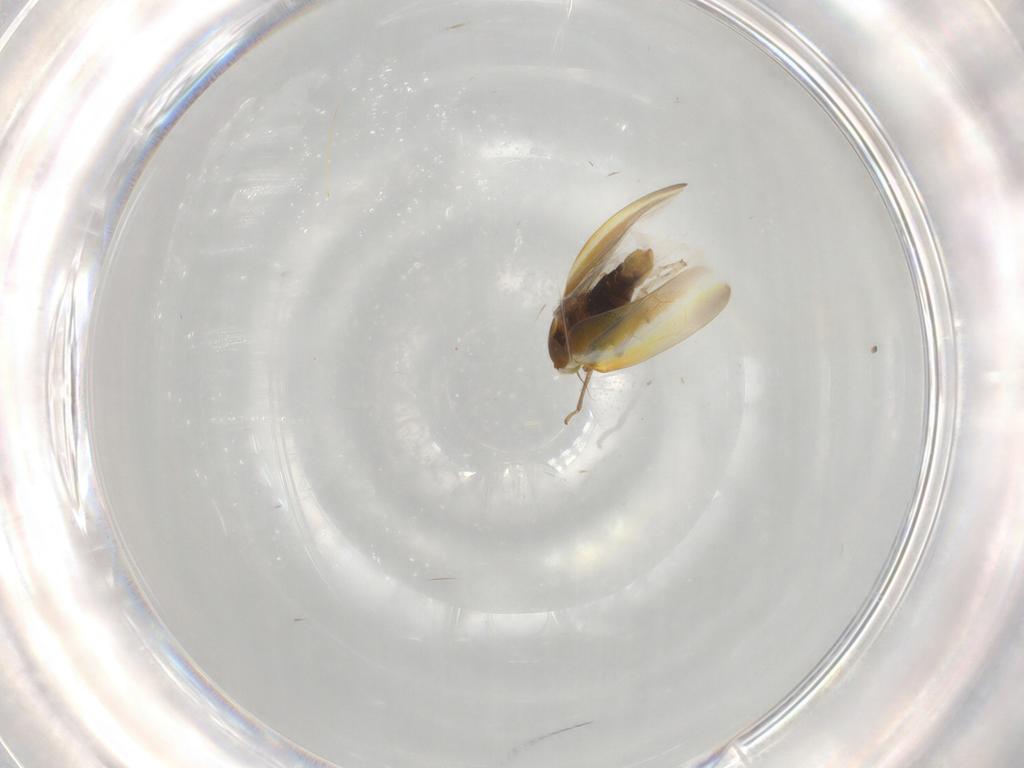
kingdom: Animalia
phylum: Arthropoda
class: Insecta
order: Hemiptera
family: Cicadellidae
